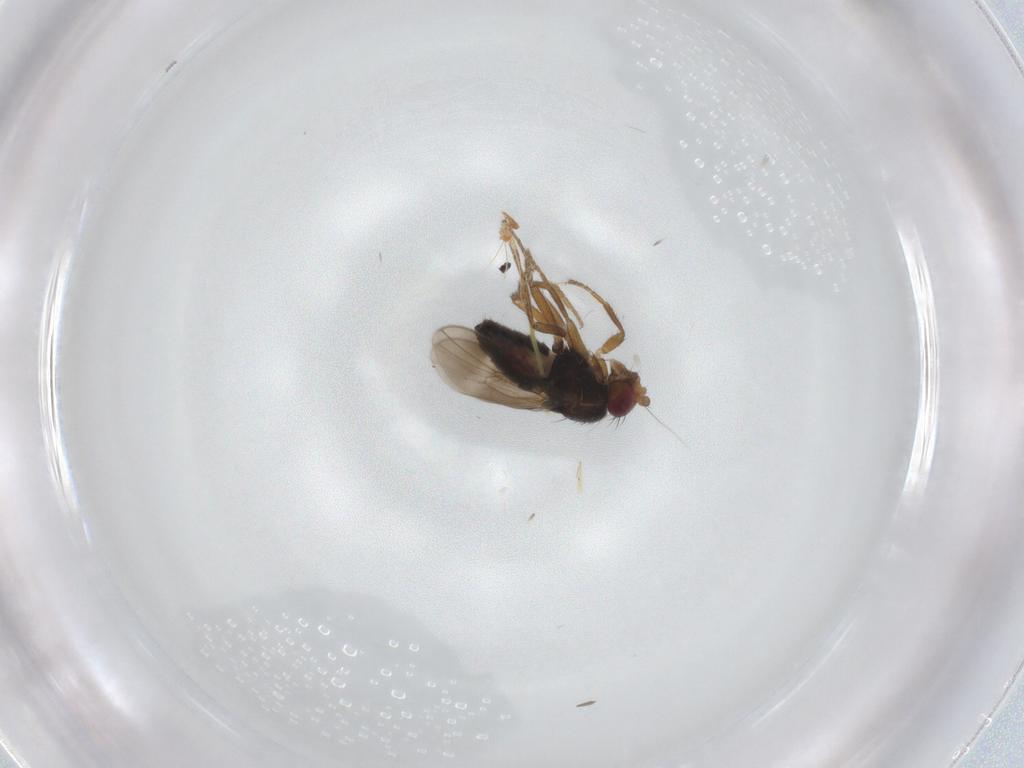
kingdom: Animalia
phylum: Arthropoda
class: Insecta
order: Diptera
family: Sphaeroceridae
